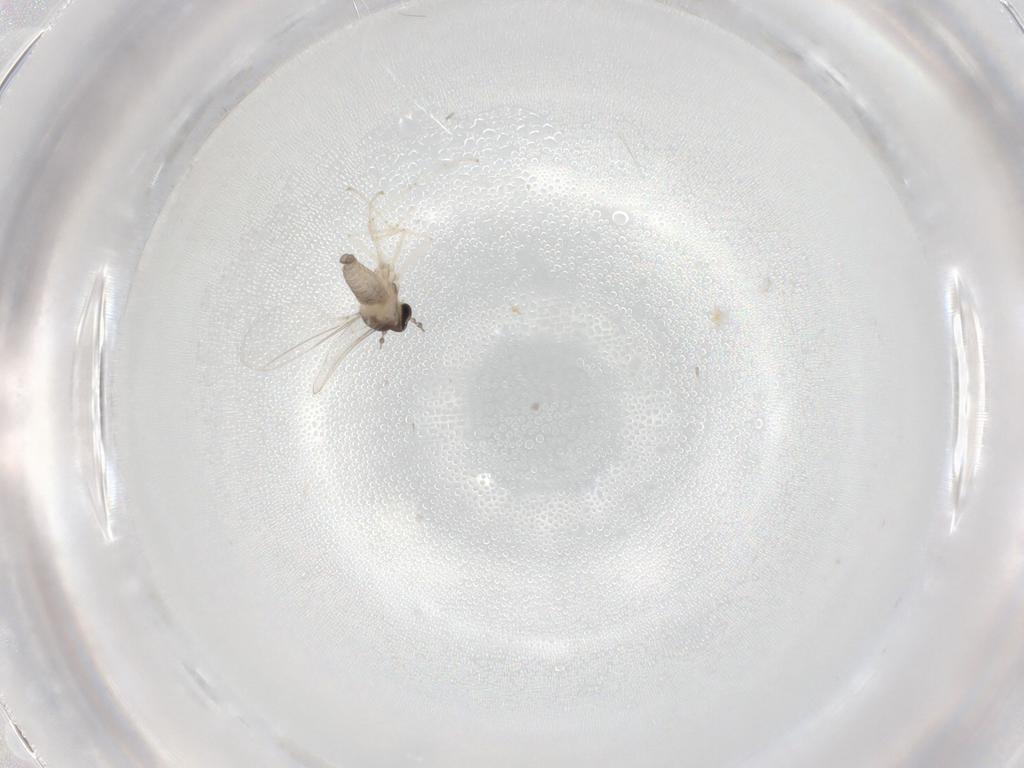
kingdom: Animalia
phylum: Arthropoda
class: Insecta
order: Diptera
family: Cecidomyiidae
